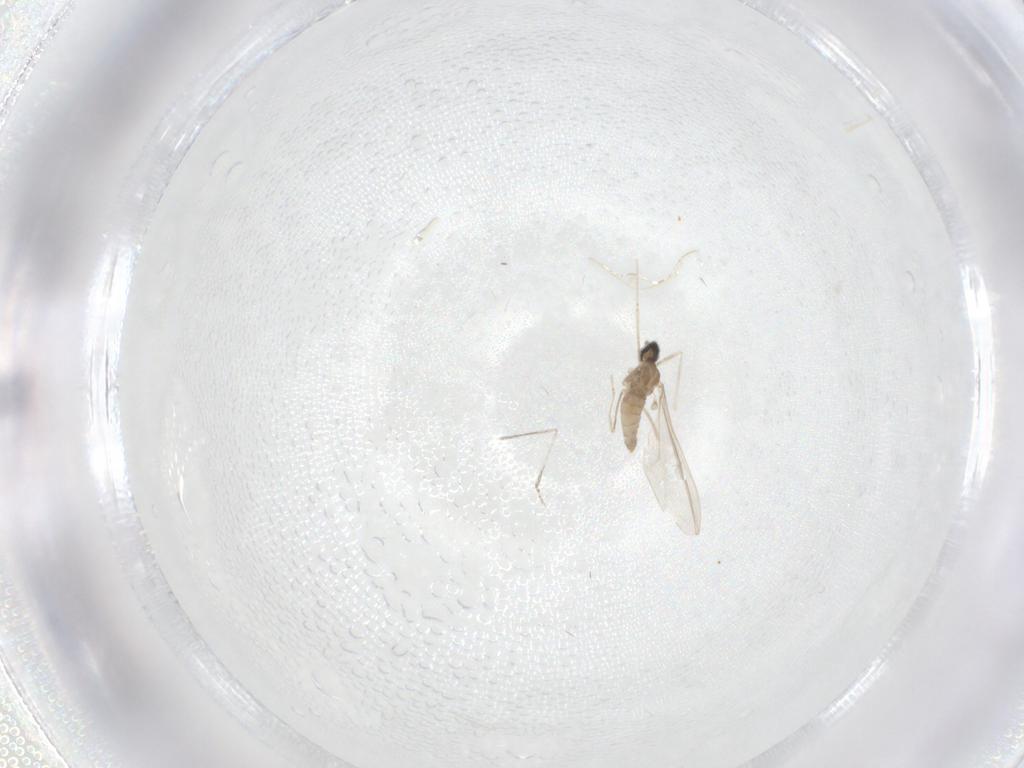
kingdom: Animalia
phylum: Arthropoda
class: Insecta
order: Diptera
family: Cecidomyiidae
